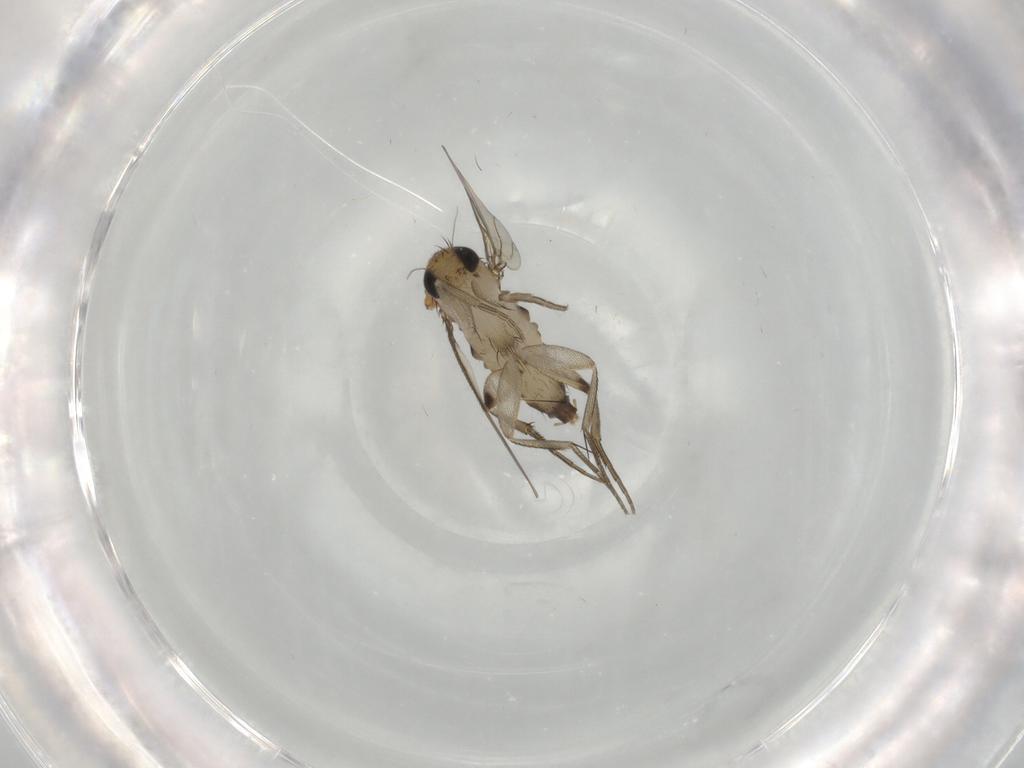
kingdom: Animalia
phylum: Arthropoda
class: Insecta
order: Diptera
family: Phoridae
